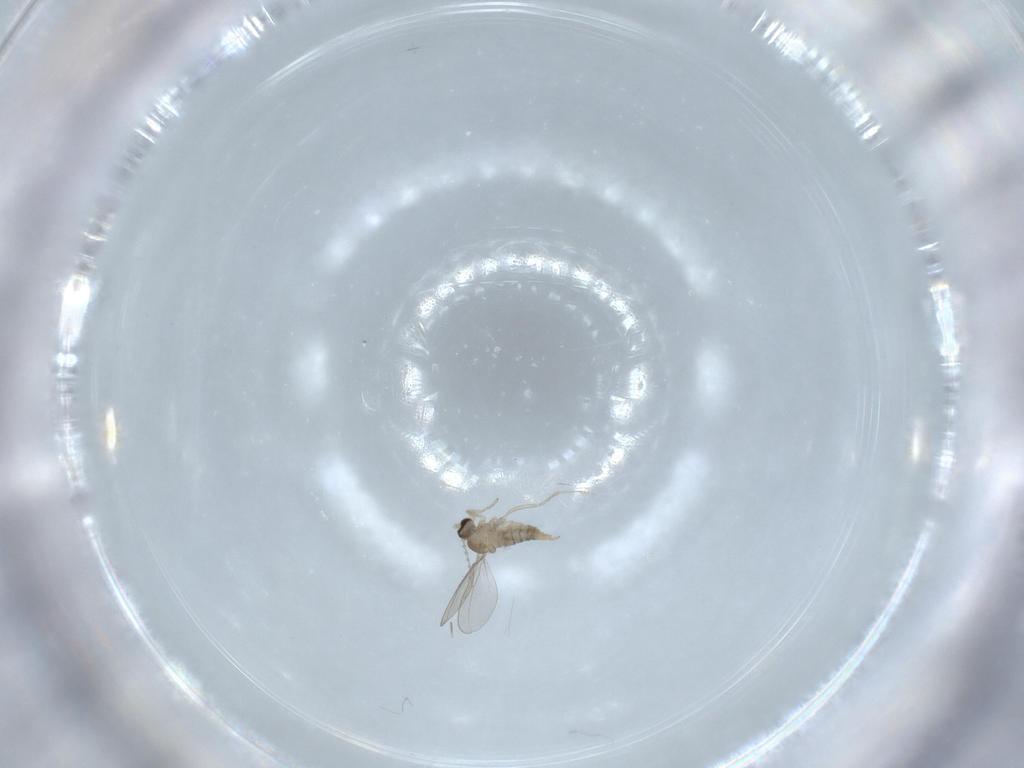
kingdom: Animalia
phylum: Arthropoda
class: Insecta
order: Diptera
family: Cecidomyiidae
